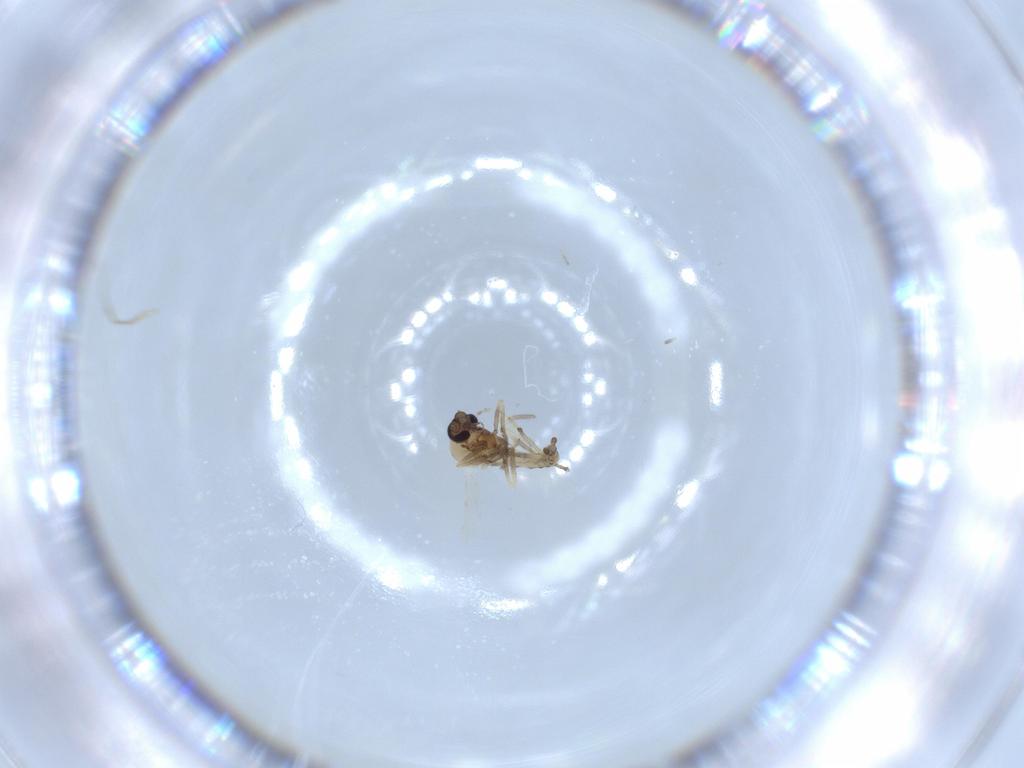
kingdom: Animalia
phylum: Arthropoda
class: Insecta
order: Diptera
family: Ceratopogonidae
